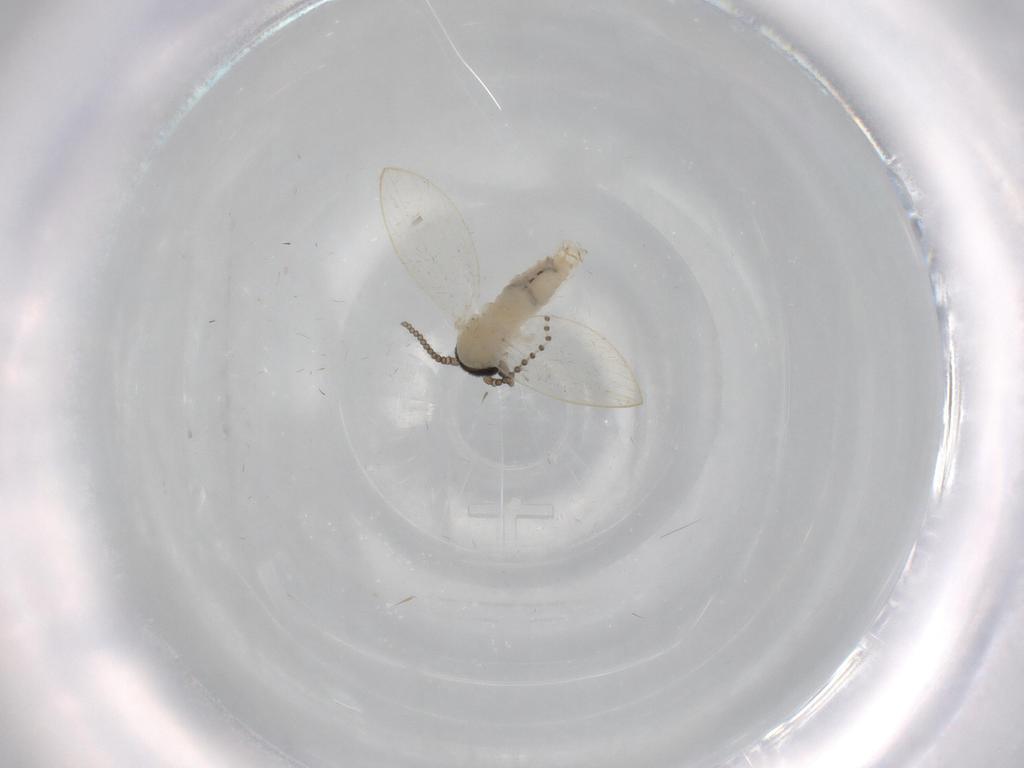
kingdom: Animalia
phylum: Arthropoda
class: Insecta
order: Diptera
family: Psychodidae
